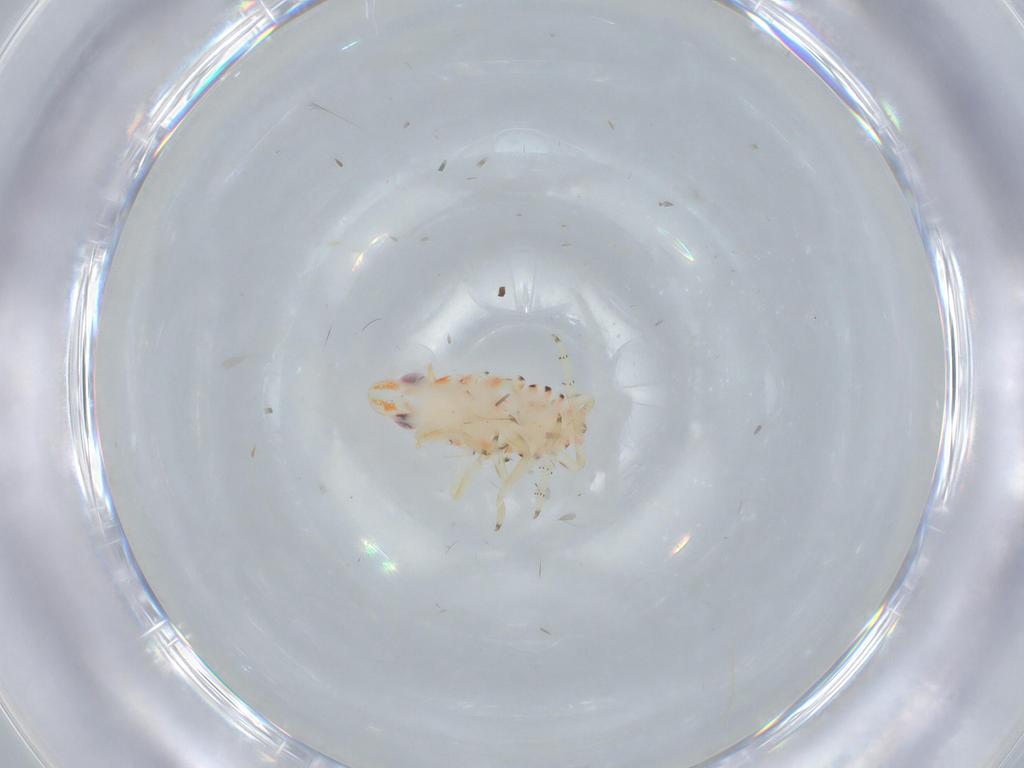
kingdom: Animalia
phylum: Arthropoda
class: Insecta
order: Hemiptera
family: Tropiduchidae
